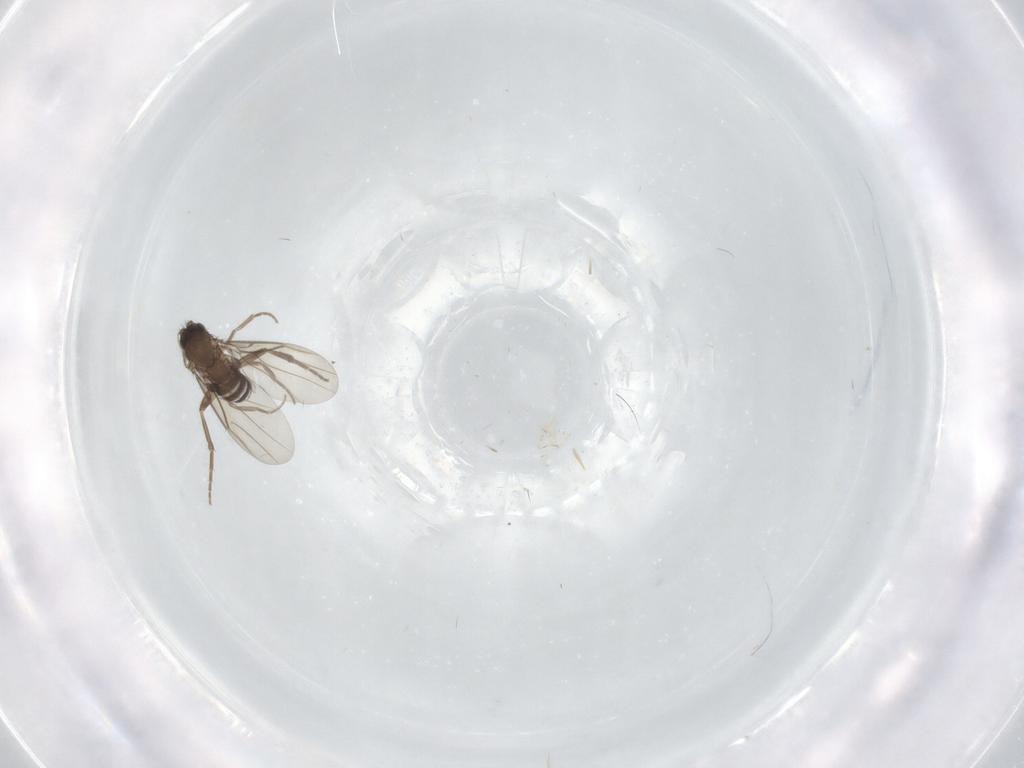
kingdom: Animalia
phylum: Arthropoda
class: Insecta
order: Diptera
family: Phoridae
